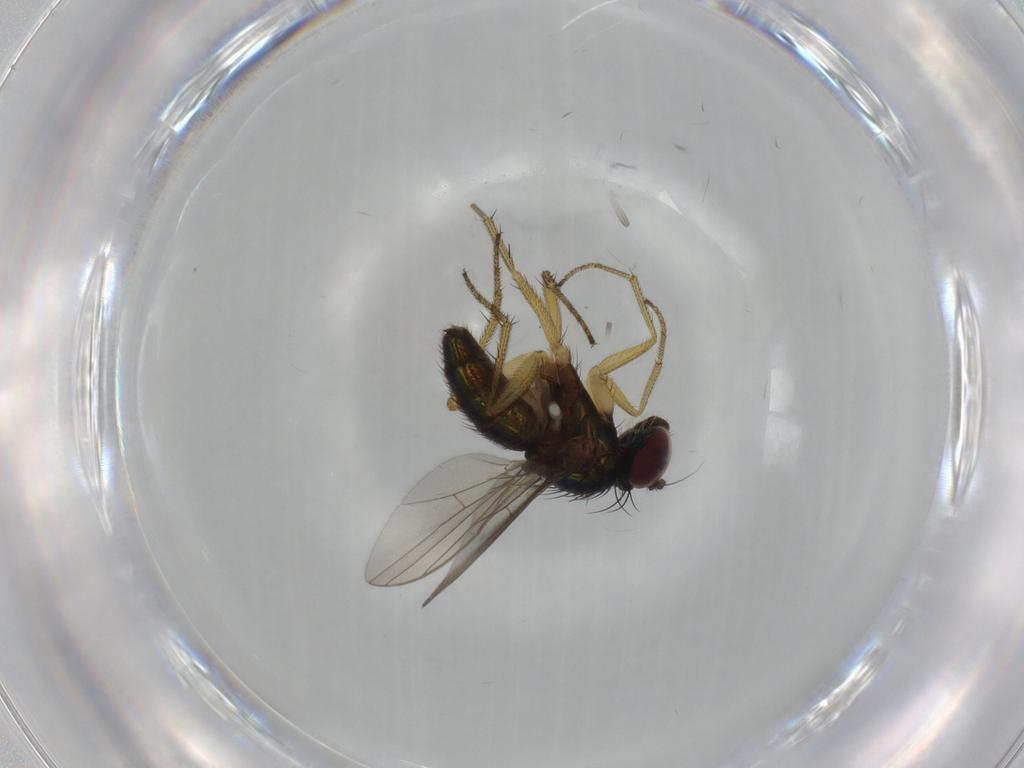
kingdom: Animalia
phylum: Arthropoda
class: Insecta
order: Diptera
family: Dolichopodidae
